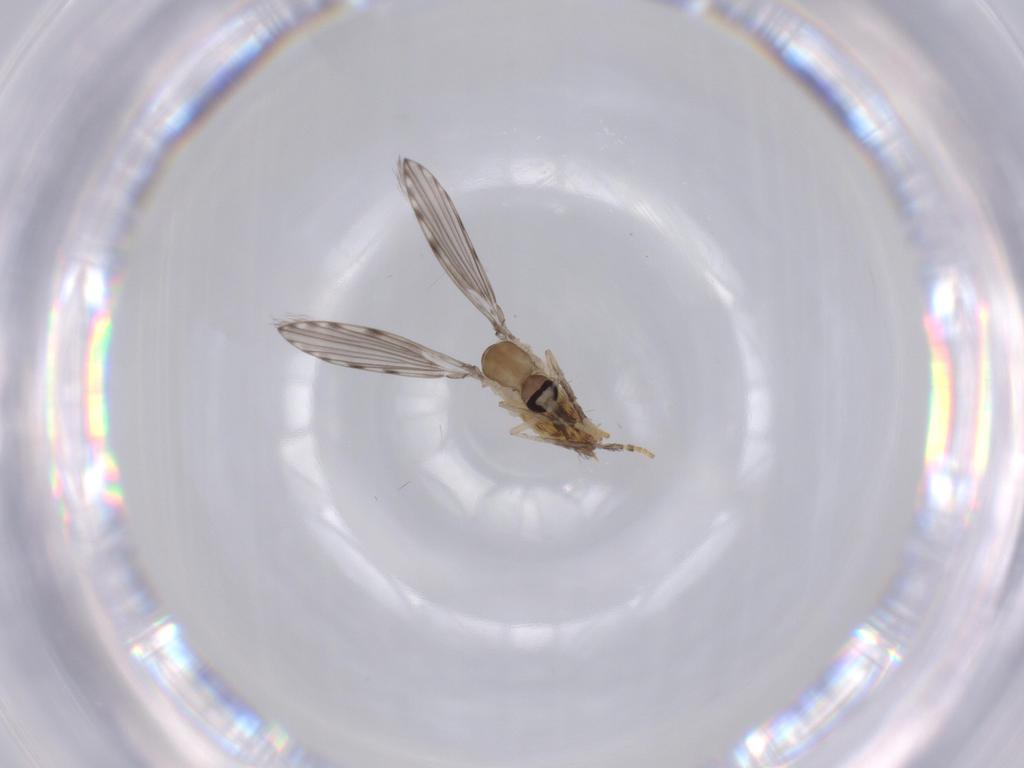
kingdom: Animalia
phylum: Arthropoda
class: Insecta
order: Diptera
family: Psychodidae
